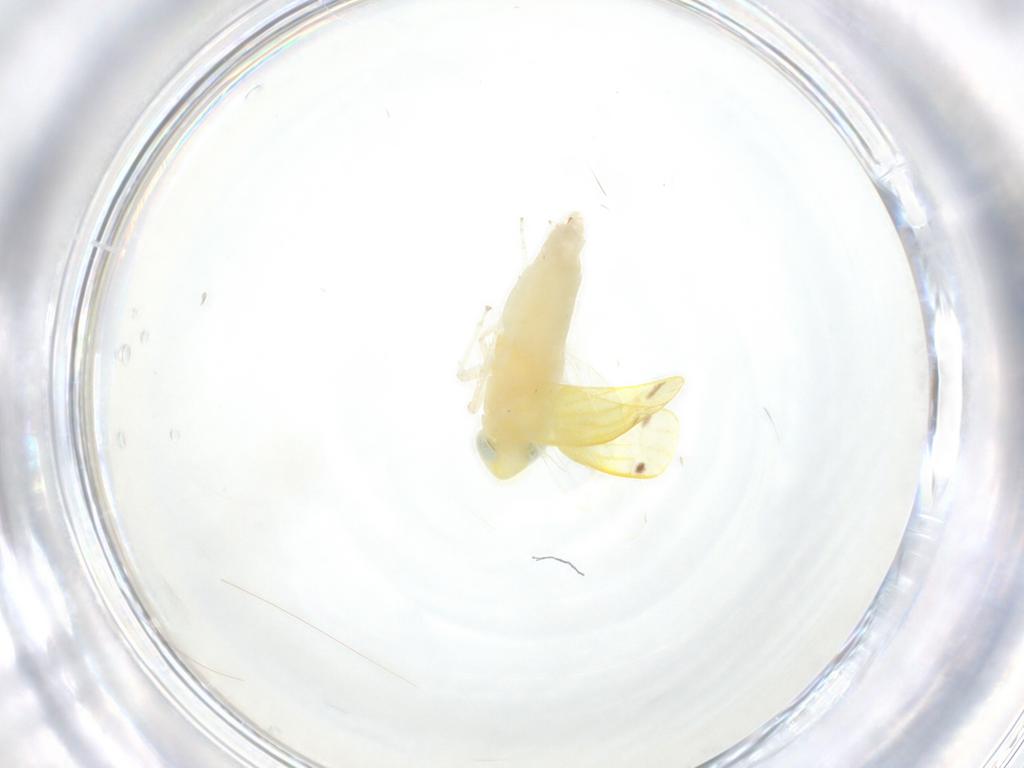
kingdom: Animalia
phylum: Arthropoda
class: Insecta
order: Hemiptera
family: Cicadellidae
